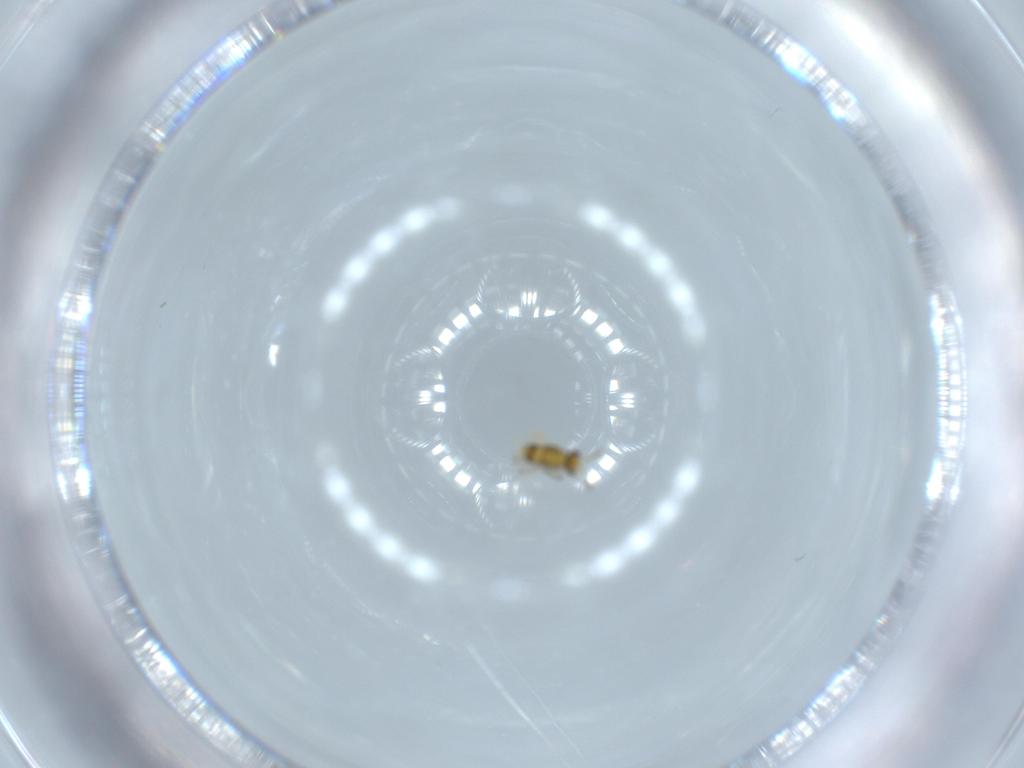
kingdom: Animalia
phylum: Arthropoda
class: Insecta
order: Hymenoptera
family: Aphelinidae
